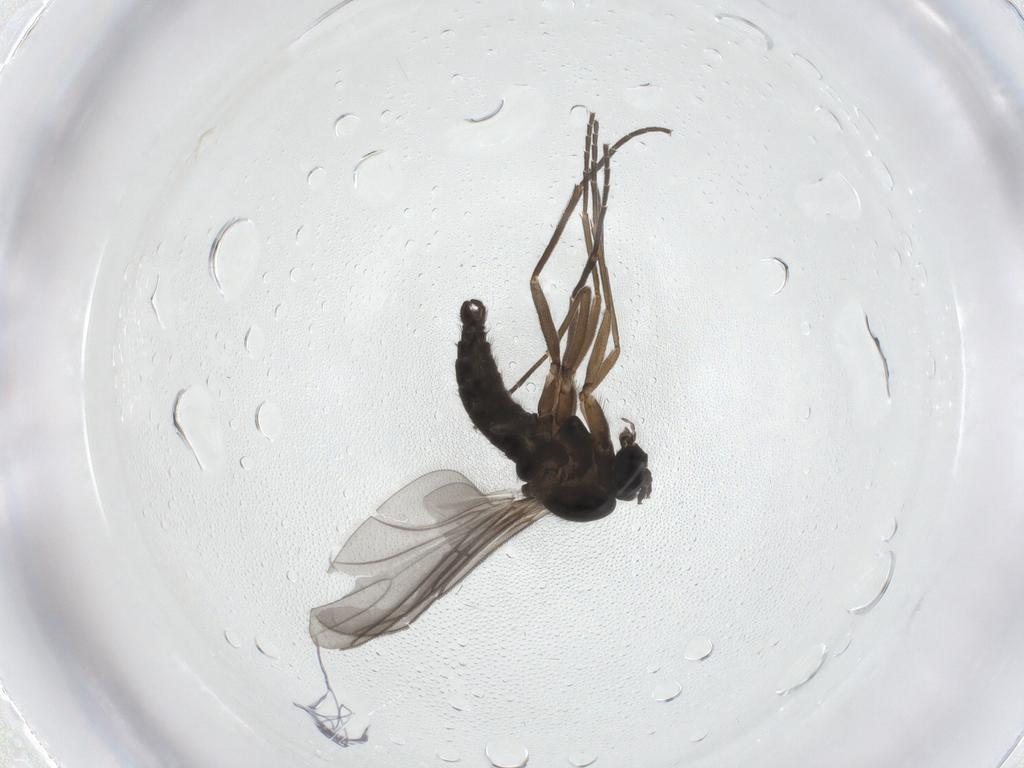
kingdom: Animalia
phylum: Arthropoda
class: Insecta
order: Diptera
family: Sciaridae
